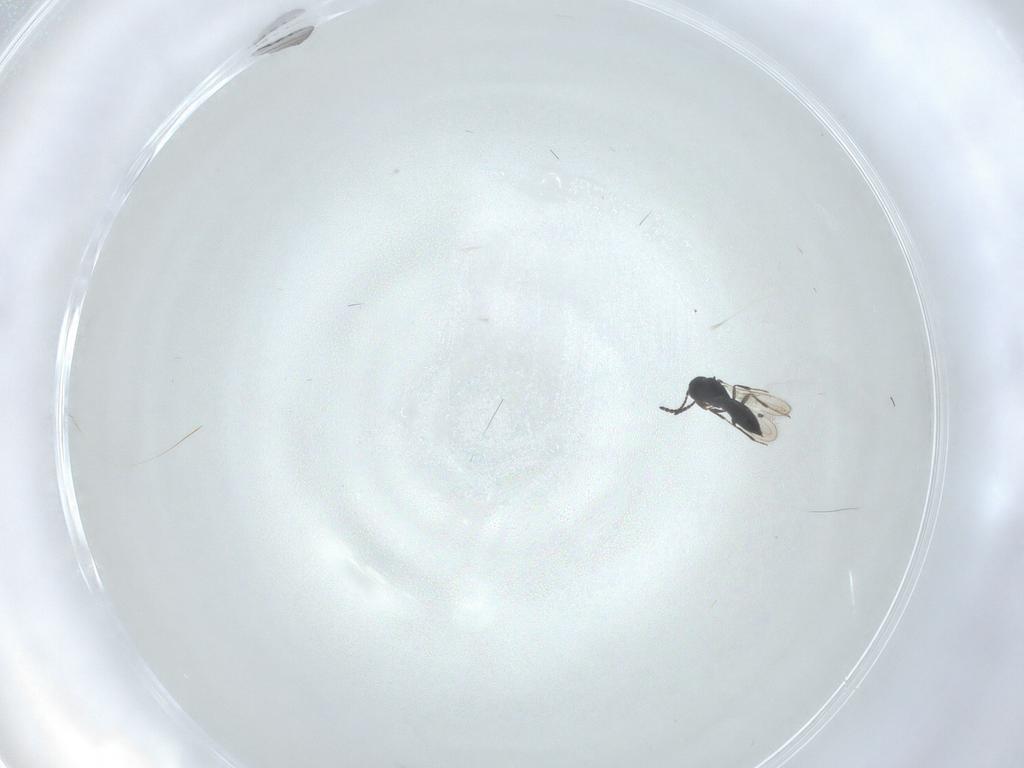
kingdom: Animalia
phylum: Arthropoda
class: Insecta
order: Hymenoptera
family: Scelionidae
